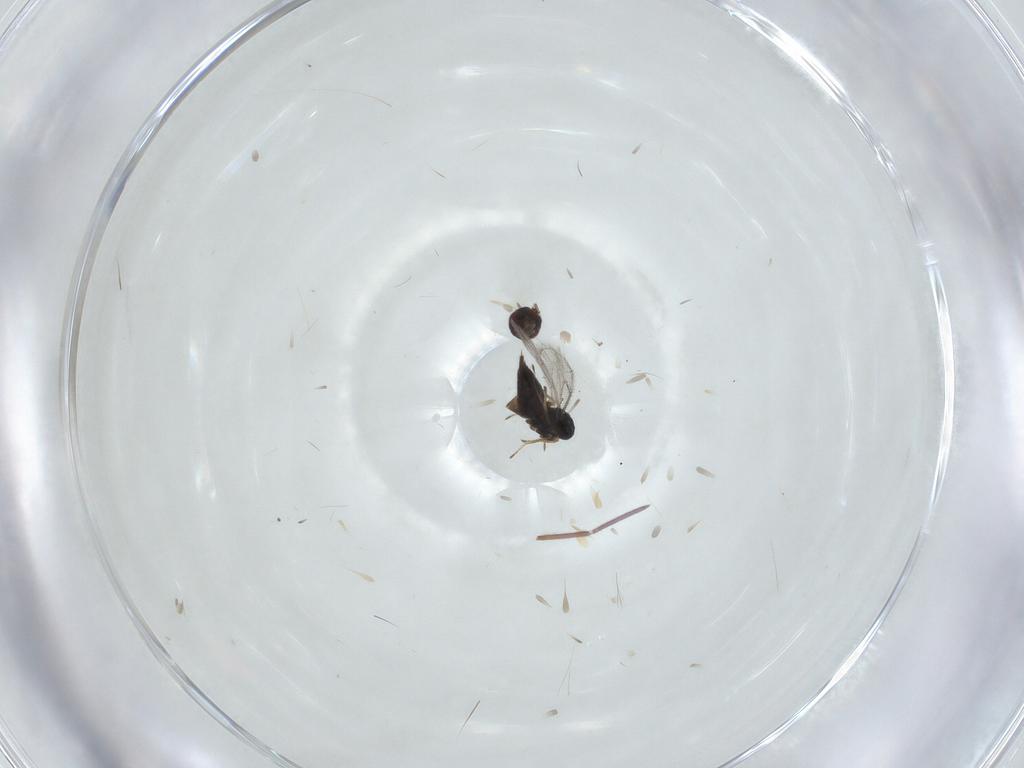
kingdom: Animalia
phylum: Arthropoda
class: Insecta
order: Hymenoptera
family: Eulophidae
